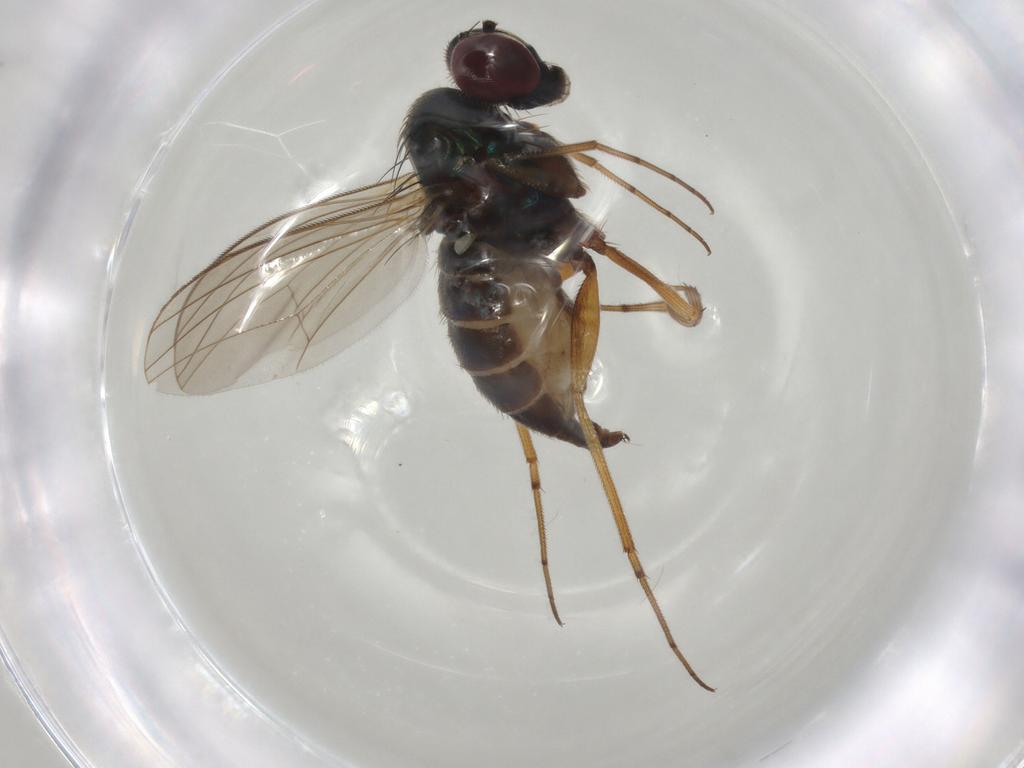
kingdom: Animalia
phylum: Arthropoda
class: Insecta
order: Diptera
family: Dolichopodidae
